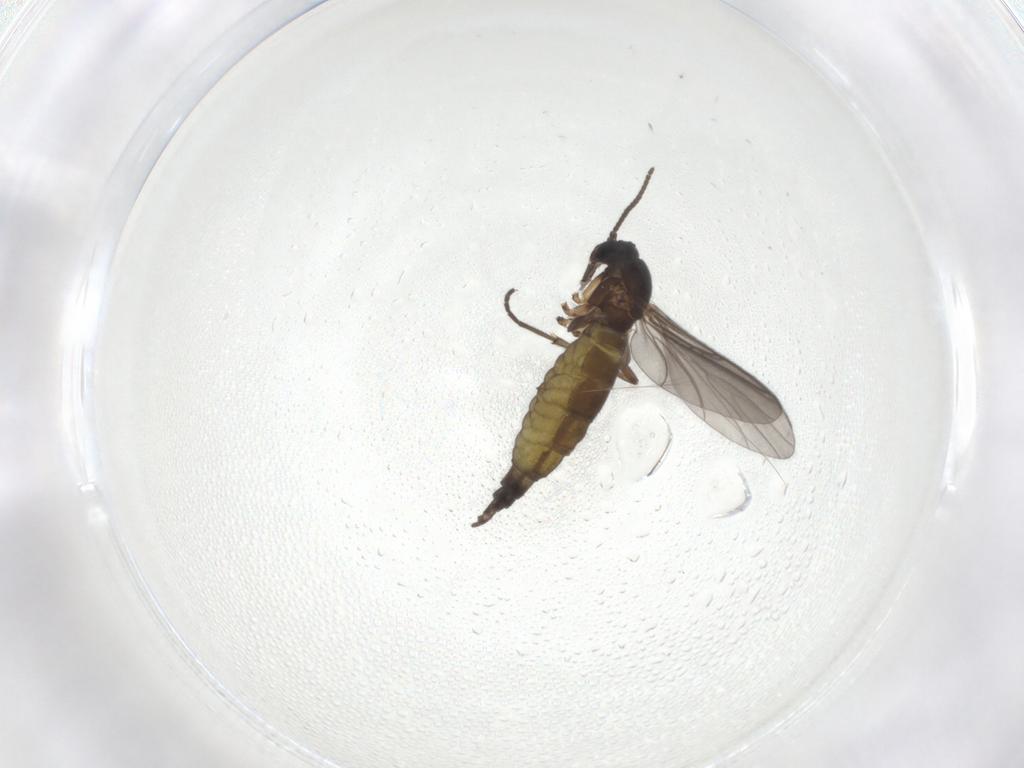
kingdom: Animalia
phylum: Arthropoda
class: Insecta
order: Diptera
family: Sciaridae
